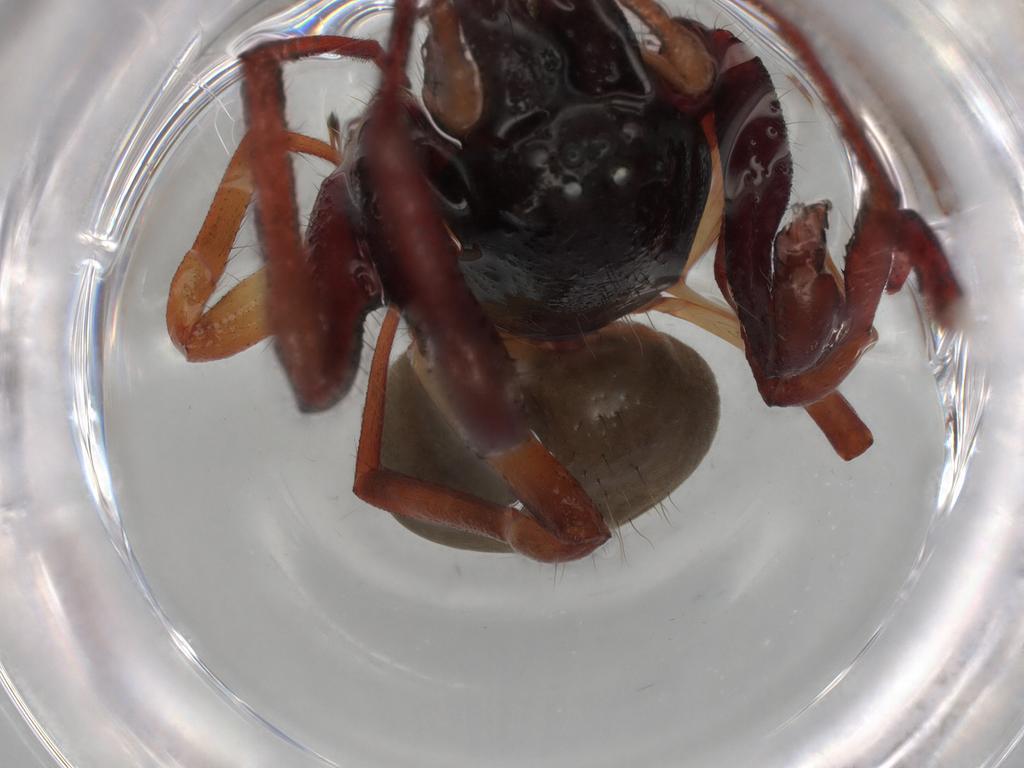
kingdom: Animalia
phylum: Arthropoda
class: Arachnida
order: Araneae
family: Trachelidae
